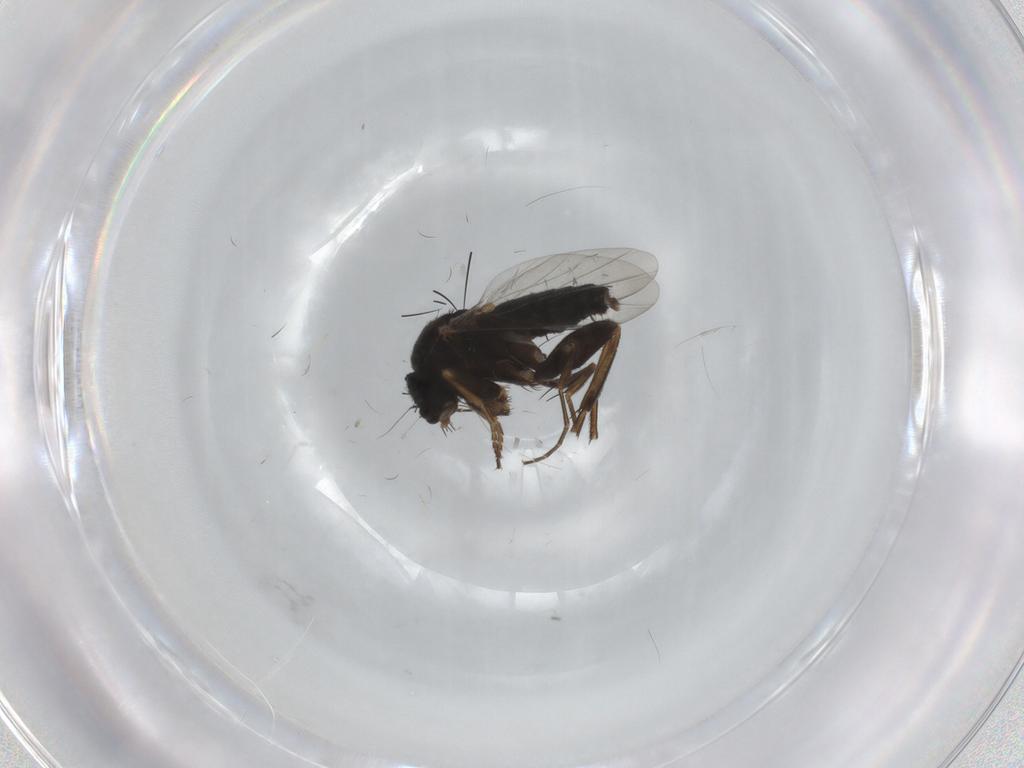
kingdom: Animalia
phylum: Arthropoda
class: Insecta
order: Diptera
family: Phoridae
